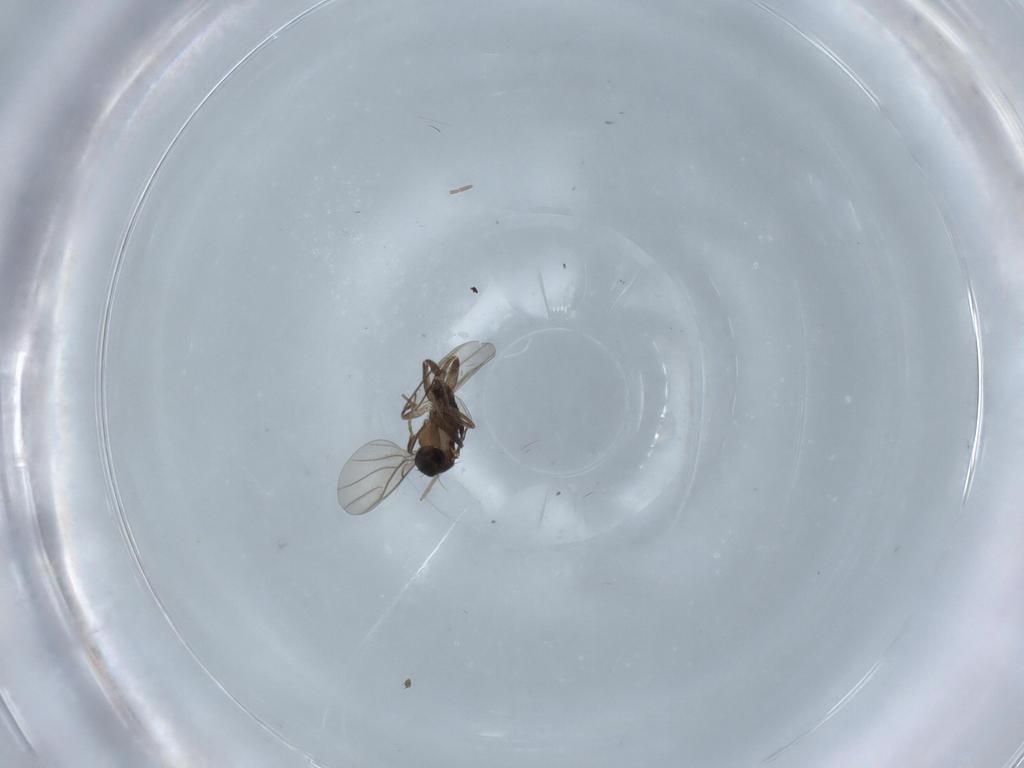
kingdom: Animalia
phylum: Arthropoda
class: Insecta
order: Diptera
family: Phoridae
